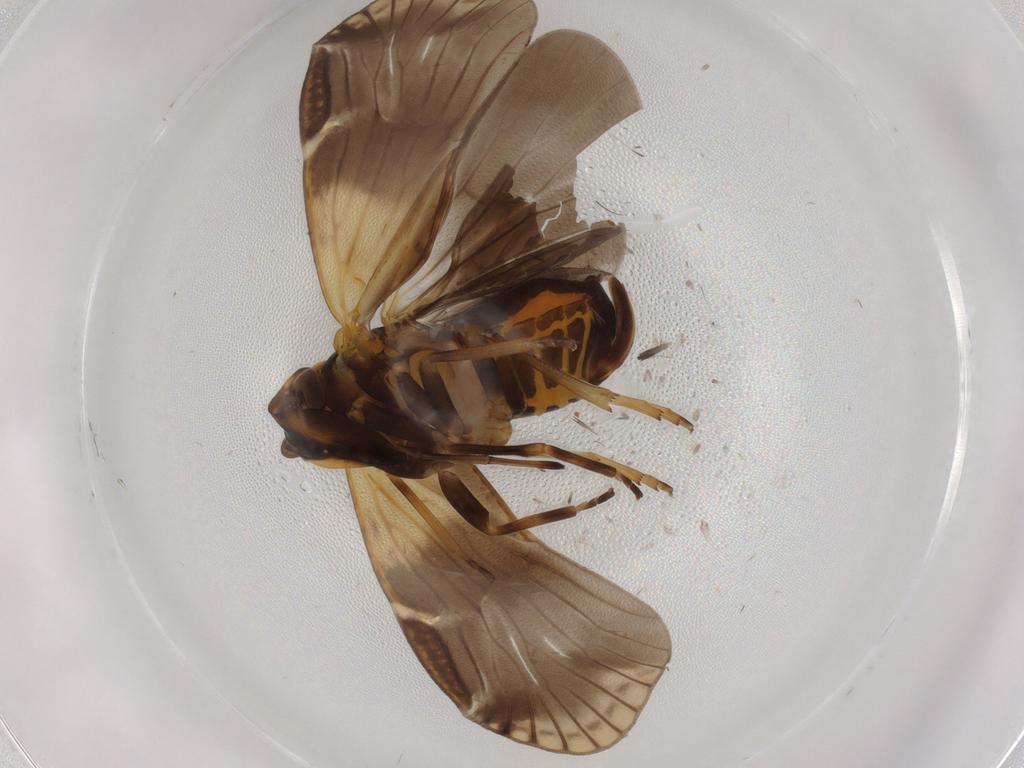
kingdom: Animalia
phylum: Arthropoda
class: Insecta
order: Hemiptera
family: Cixiidae
